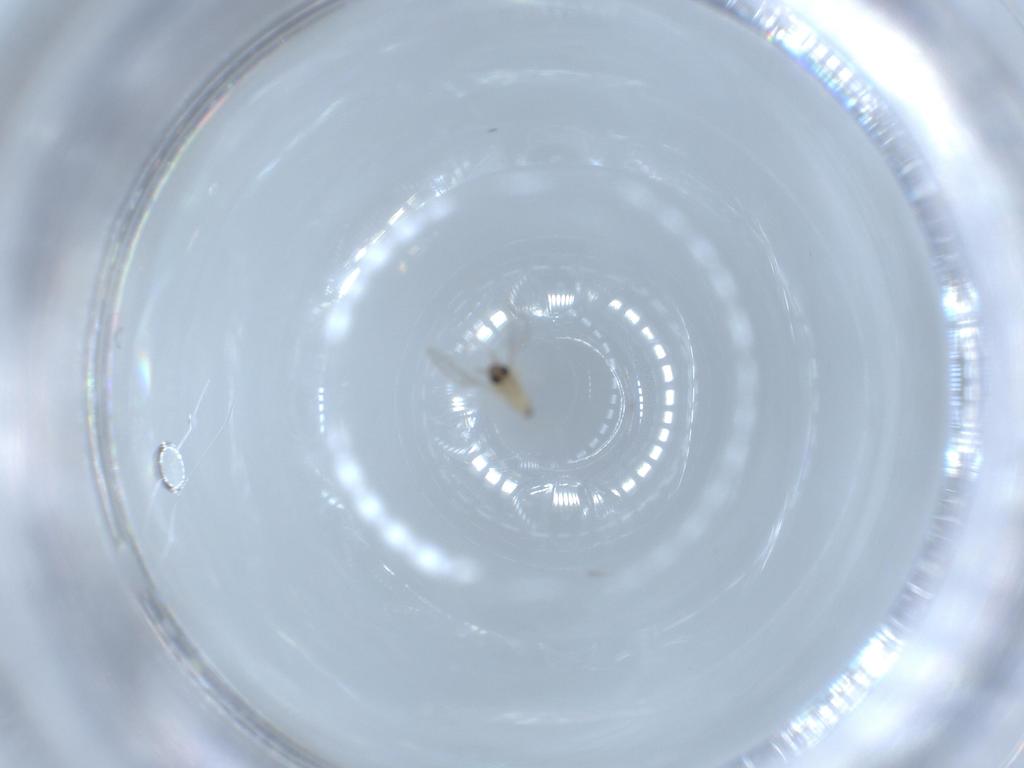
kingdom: Animalia
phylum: Arthropoda
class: Insecta
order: Diptera
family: Cecidomyiidae
